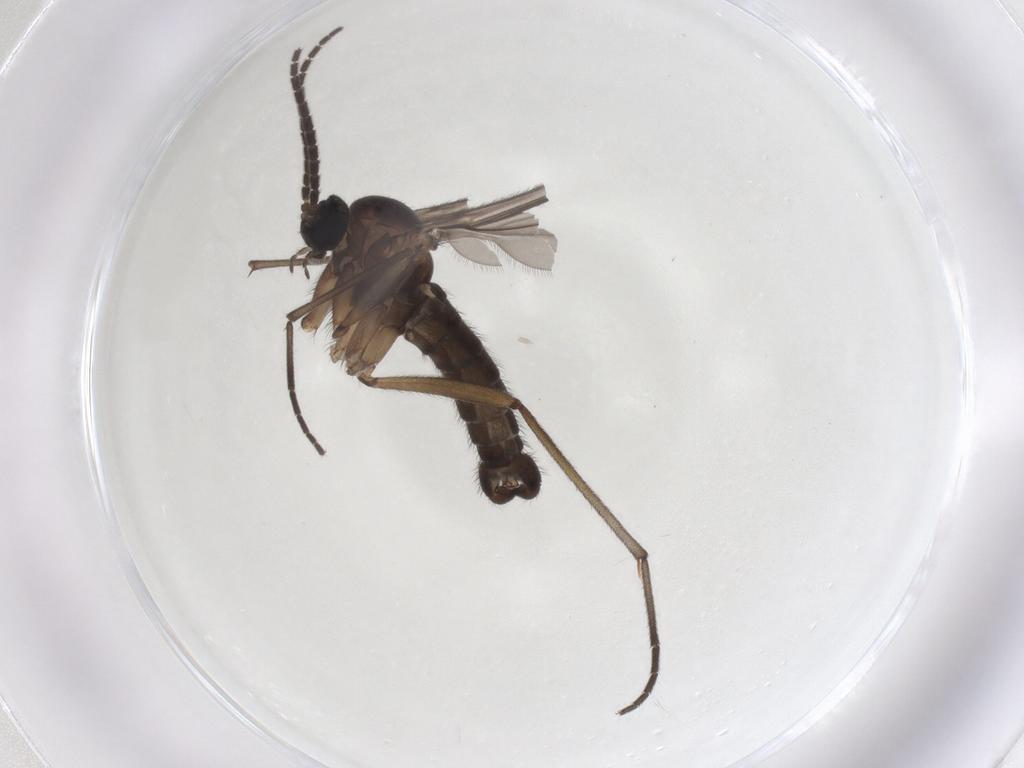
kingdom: Animalia
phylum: Arthropoda
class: Insecta
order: Diptera
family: Sciaridae
